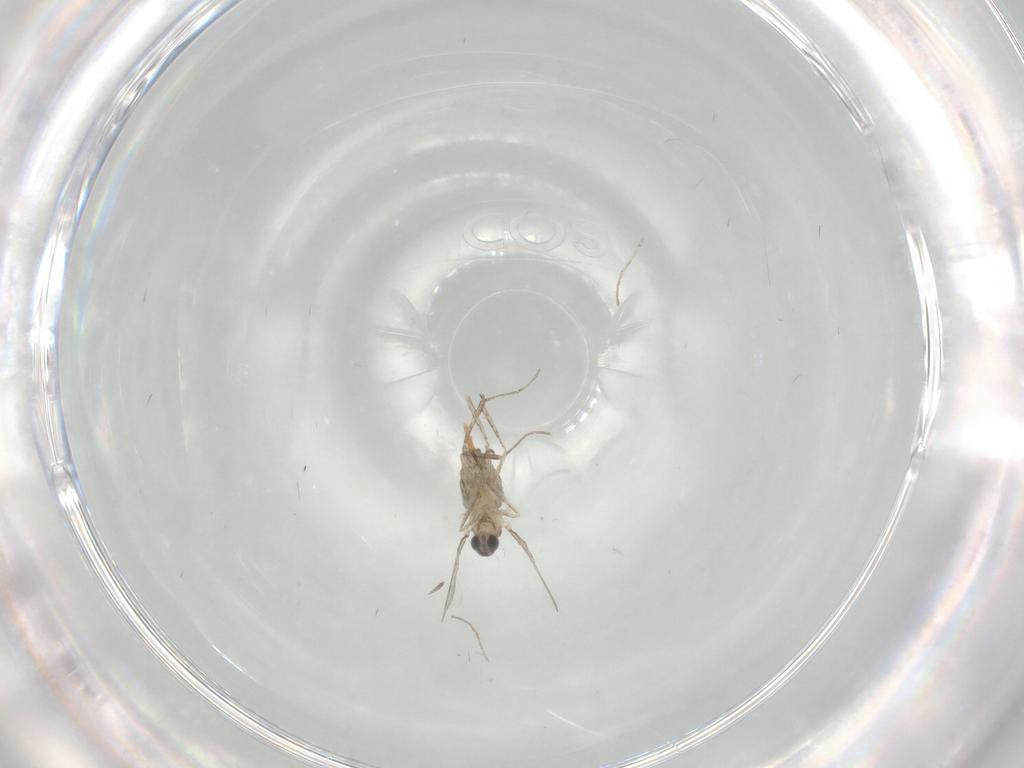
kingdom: Animalia
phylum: Arthropoda
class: Insecta
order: Diptera
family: Cecidomyiidae
